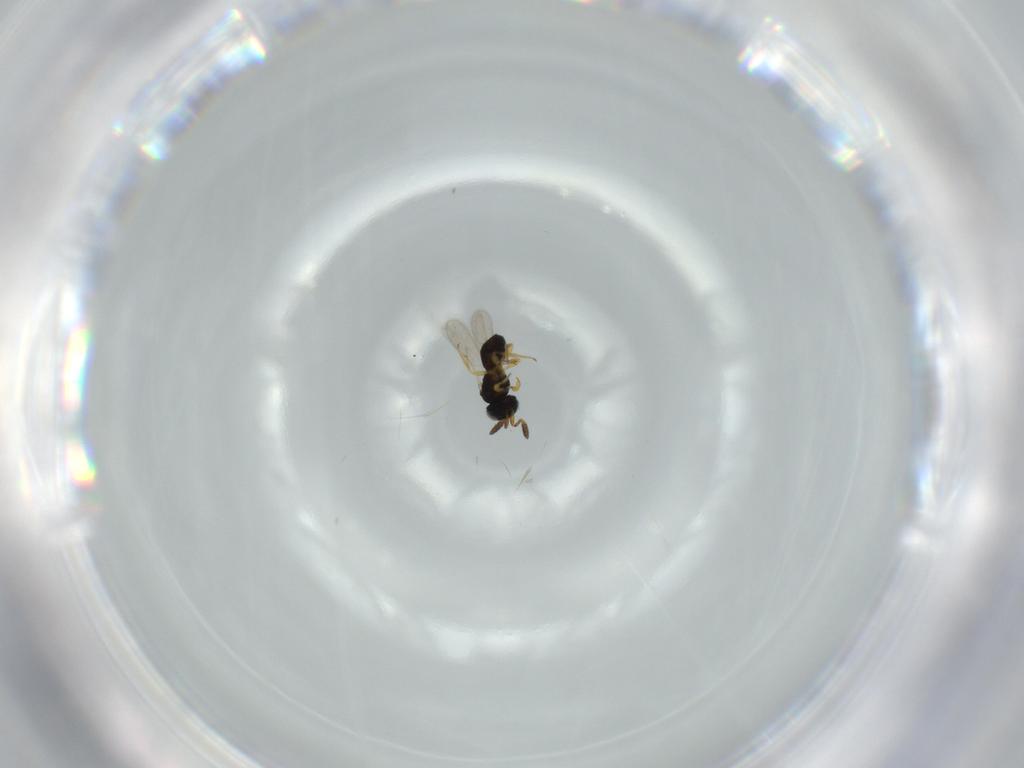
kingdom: Animalia
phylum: Arthropoda
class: Insecta
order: Hymenoptera
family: Scelionidae
